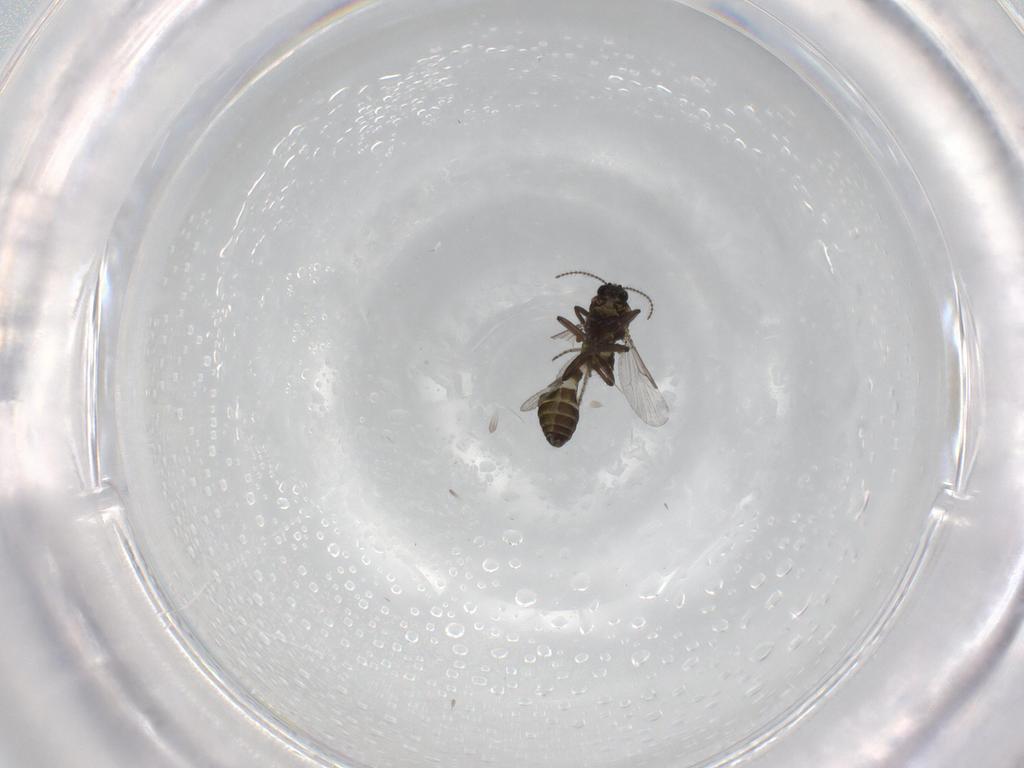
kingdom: Animalia
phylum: Arthropoda
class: Insecta
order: Diptera
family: Ceratopogonidae
